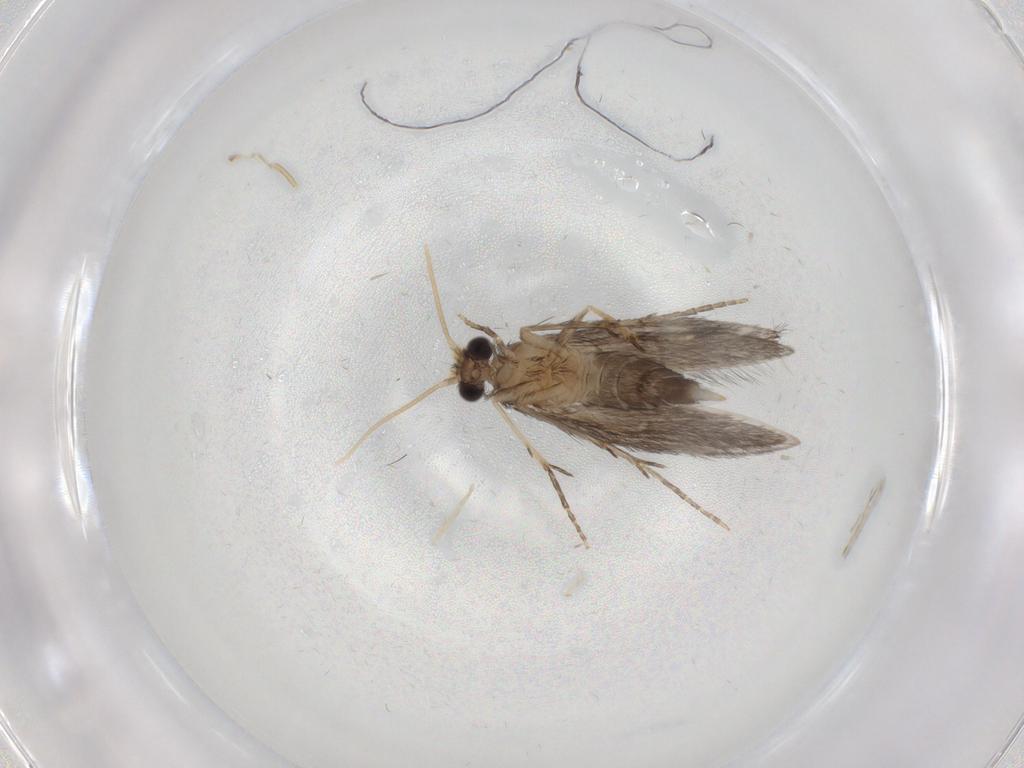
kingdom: Animalia
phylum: Arthropoda
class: Insecta
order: Trichoptera
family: Hydroptilidae
